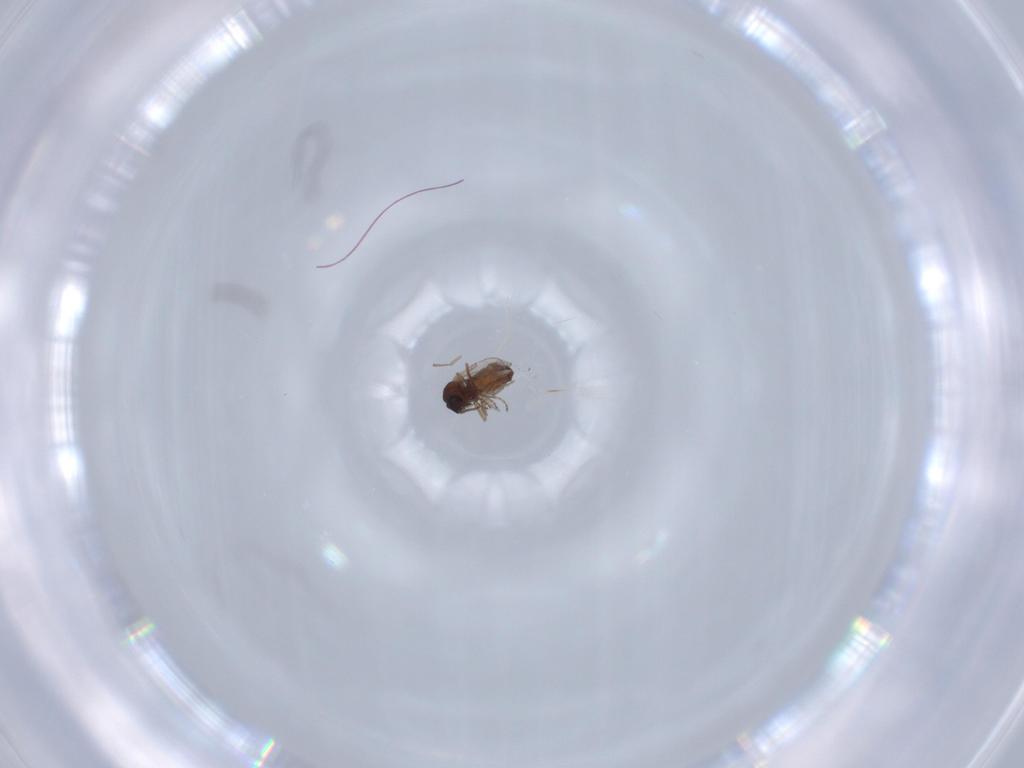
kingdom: Animalia
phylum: Arthropoda
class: Insecta
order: Diptera
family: Ceratopogonidae
